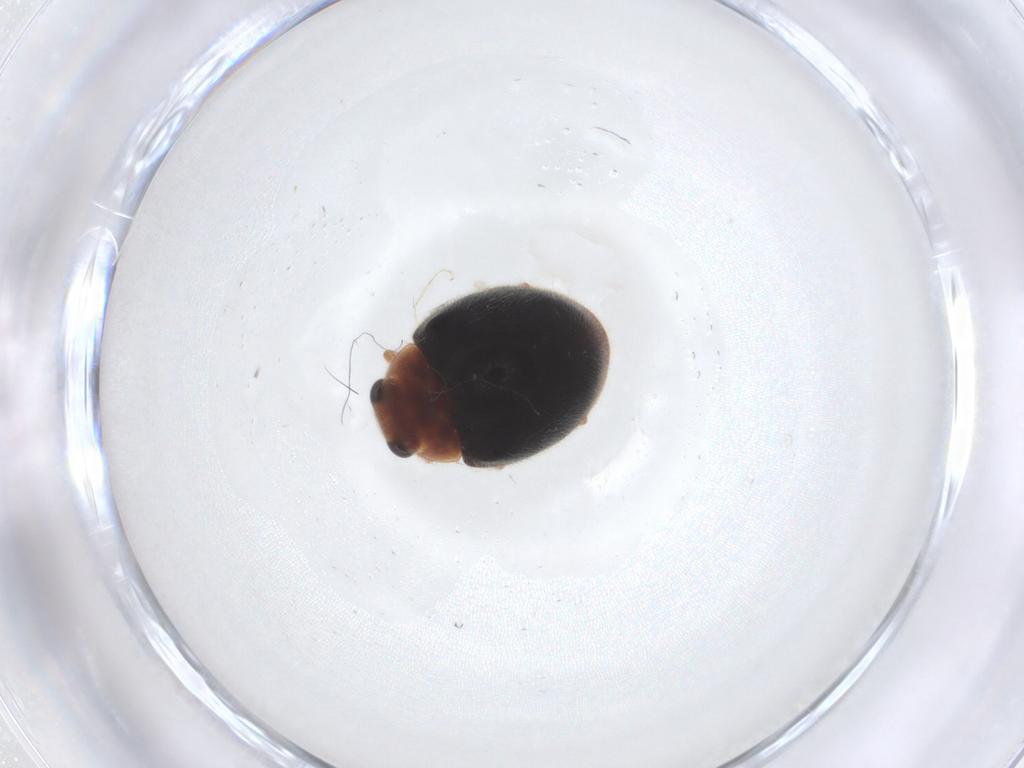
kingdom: Animalia
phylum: Arthropoda
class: Insecta
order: Coleoptera
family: Coccinellidae
